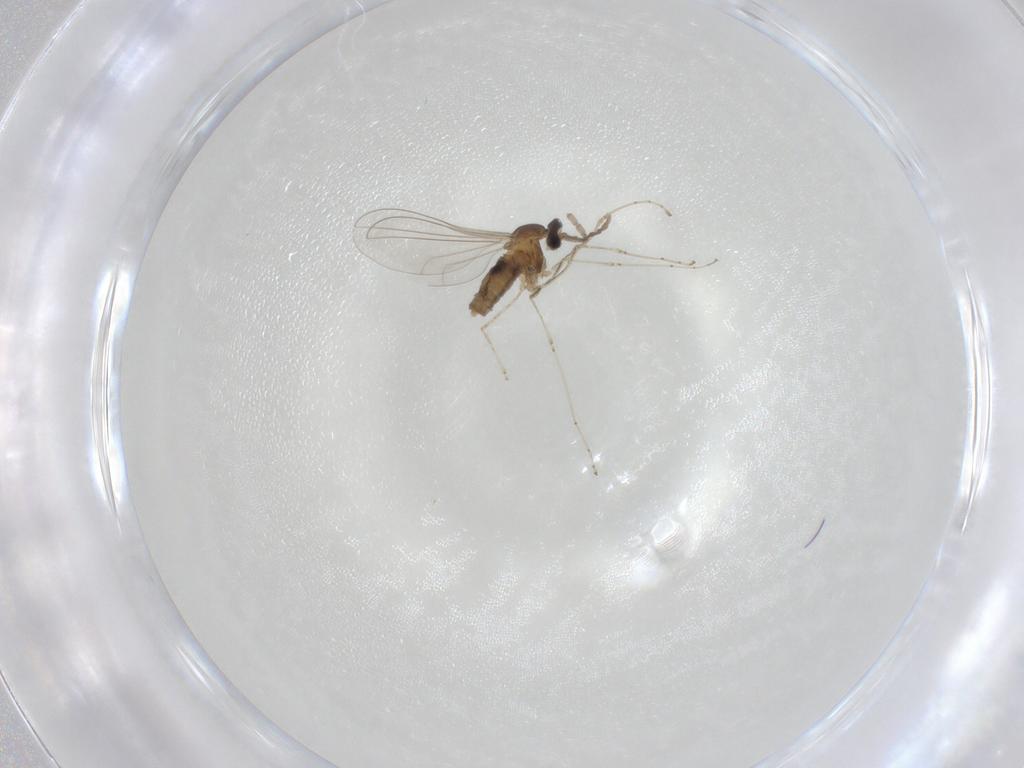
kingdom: Animalia
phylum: Arthropoda
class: Insecta
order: Diptera
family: Cecidomyiidae
